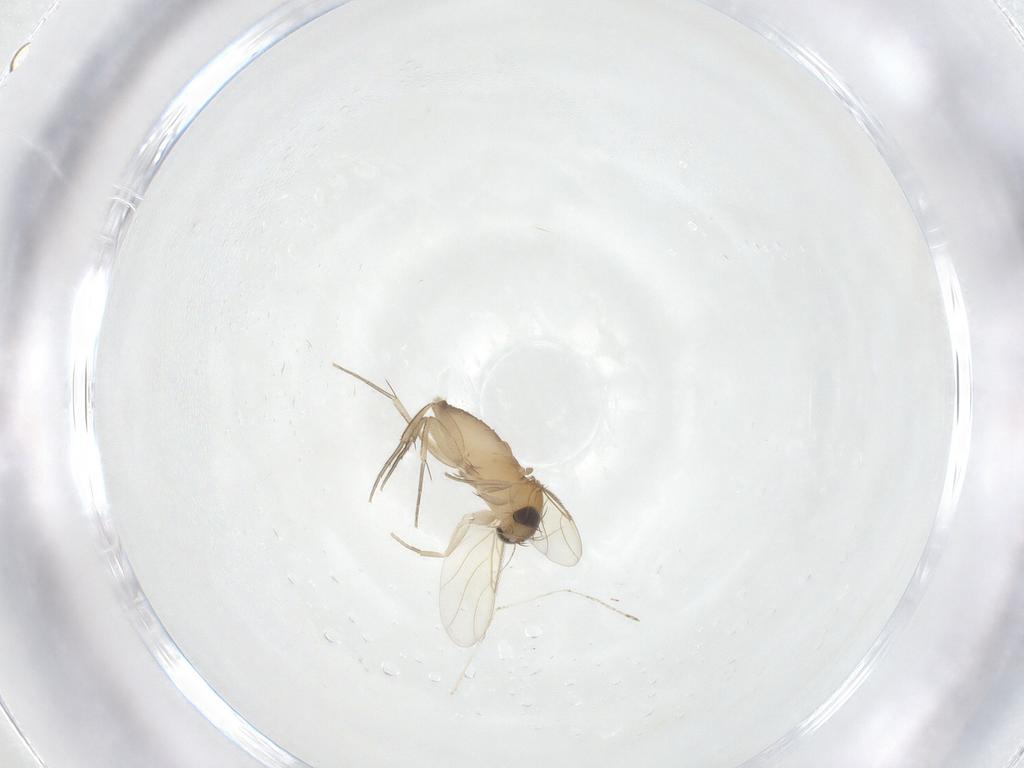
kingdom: Animalia
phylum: Arthropoda
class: Insecta
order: Diptera
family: Phoridae
